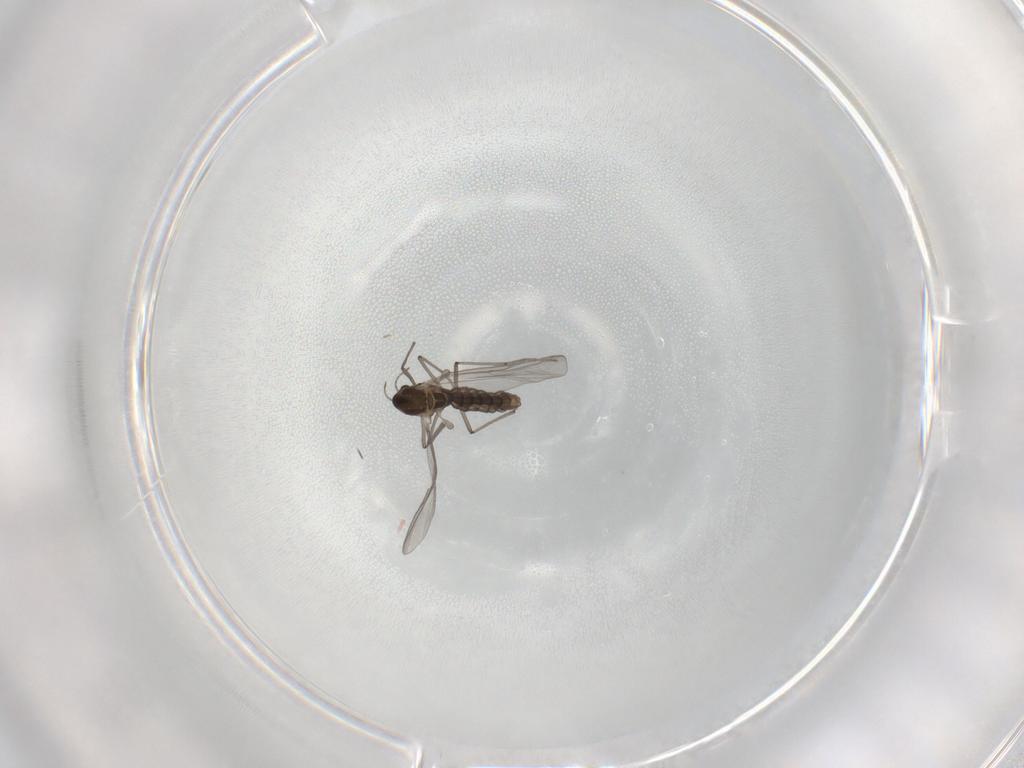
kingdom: Animalia
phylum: Arthropoda
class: Insecta
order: Diptera
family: Chironomidae
